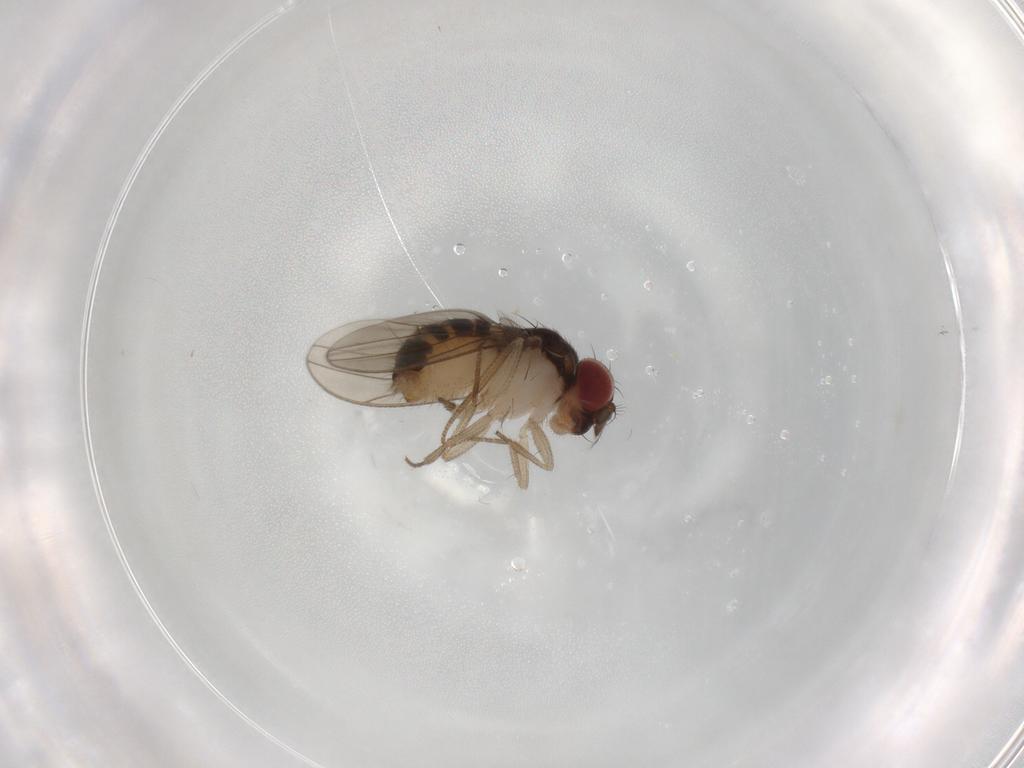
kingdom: Animalia
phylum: Arthropoda
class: Insecta
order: Diptera
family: Drosophilidae
